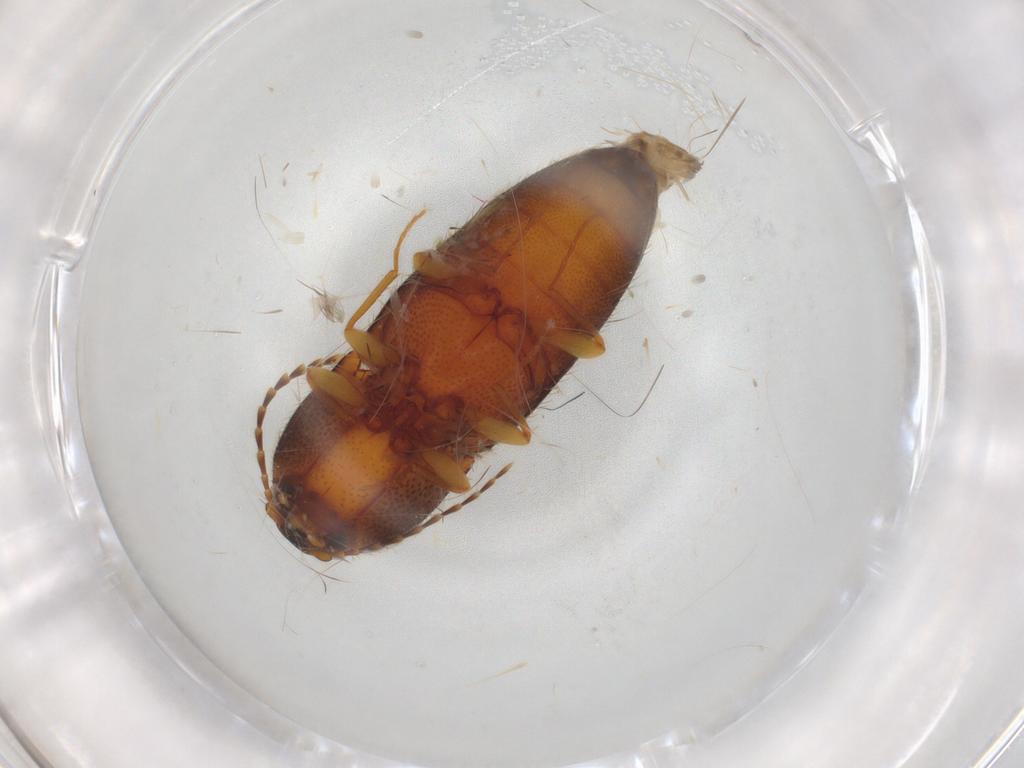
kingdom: Animalia
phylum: Arthropoda
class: Insecta
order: Coleoptera
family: Elateridae
